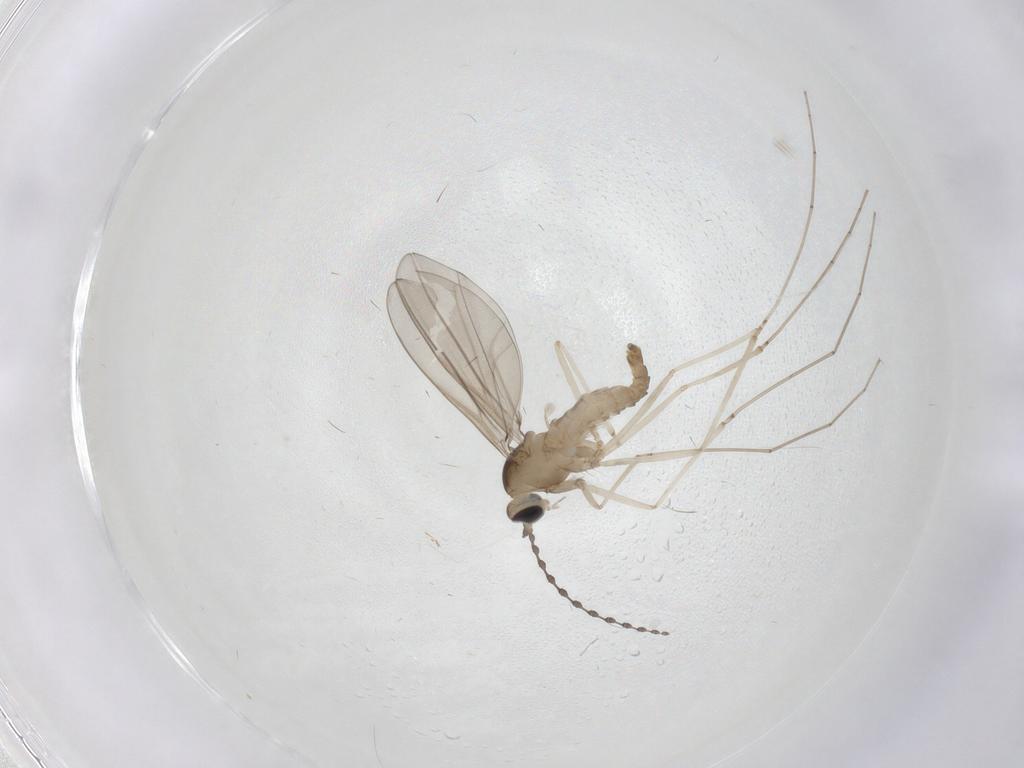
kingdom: Animalia
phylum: Arthropoda
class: Insecta
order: Diptera
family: Cecidomyiidae
